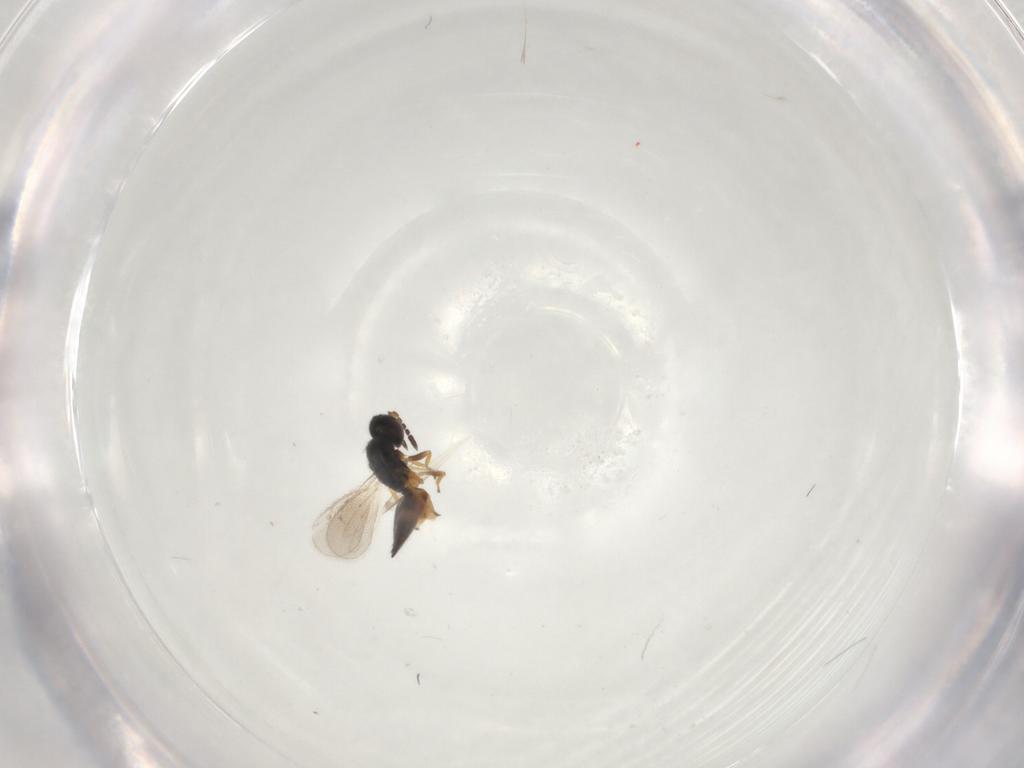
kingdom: Animalia
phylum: Arthropoda
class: Insecta
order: Hymenoptera
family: Eulophidae
